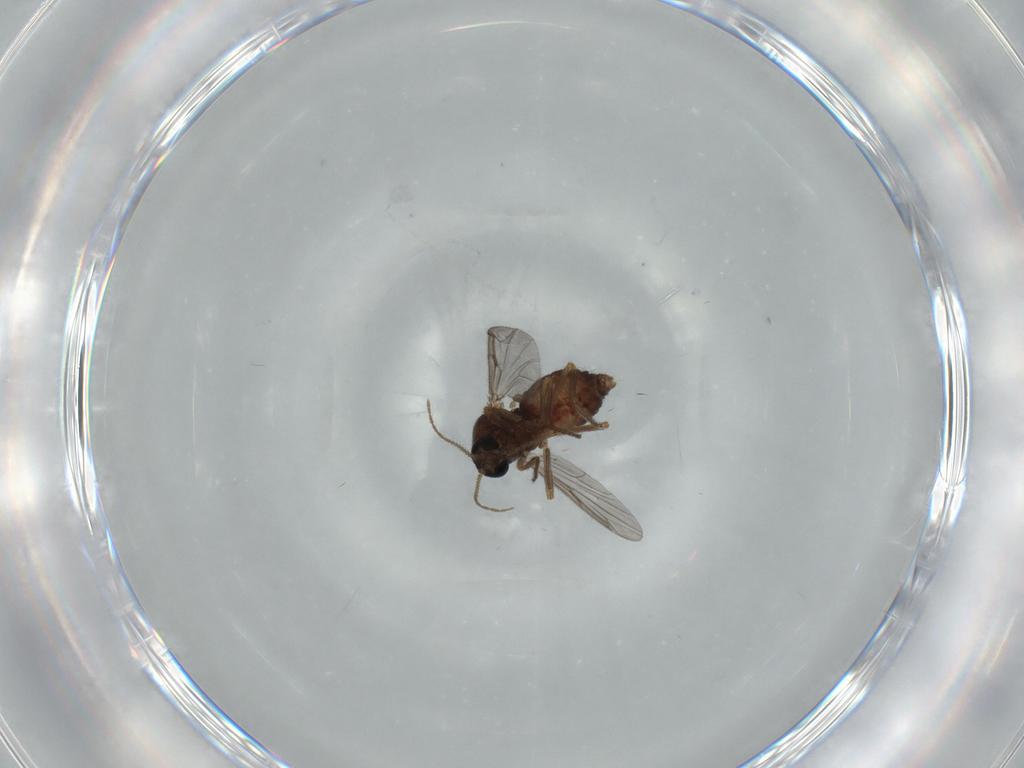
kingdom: Animalia
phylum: Arthropoda
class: Insecta
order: Diptera
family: Ceratopogonidae
